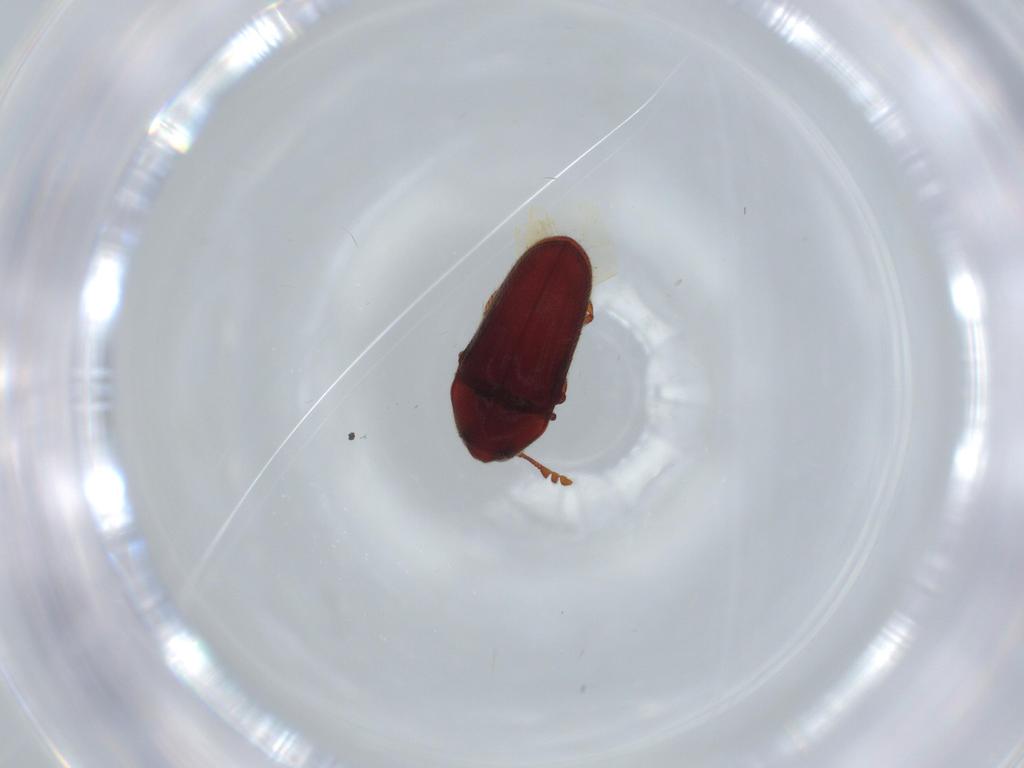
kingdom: Animalia
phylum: Arthropoda
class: Insecta
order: Coleoptera
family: Throscidae
